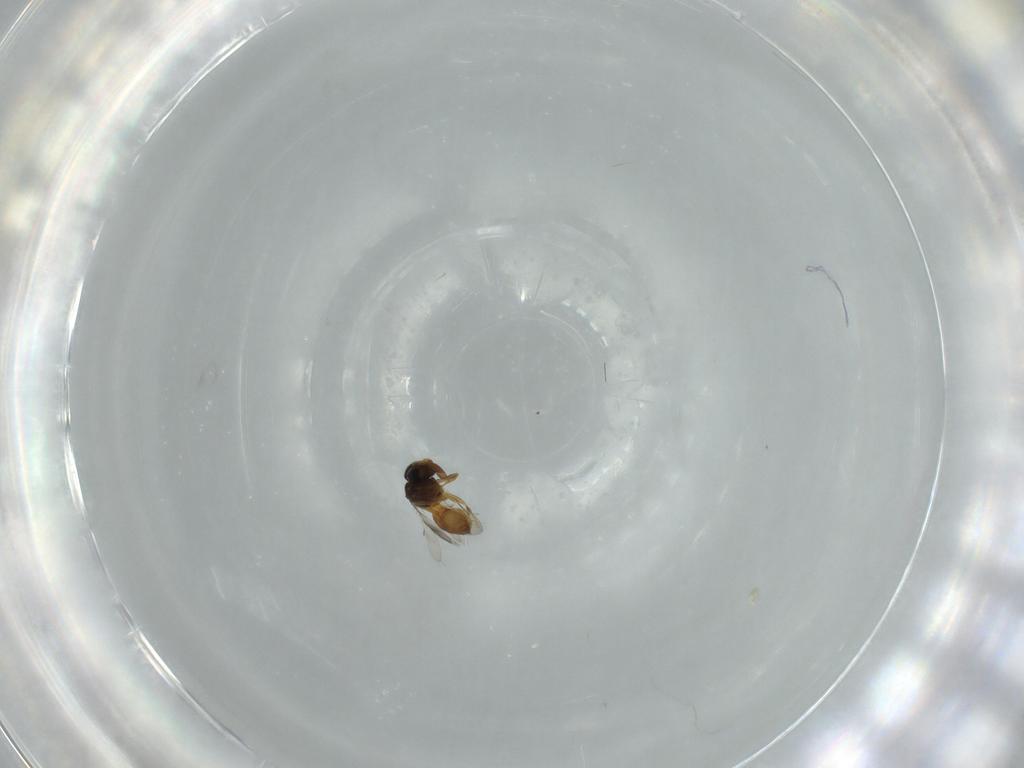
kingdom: Animalia
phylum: Arthropoda
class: Insecta
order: Hymenoptera
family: Scelionidae
